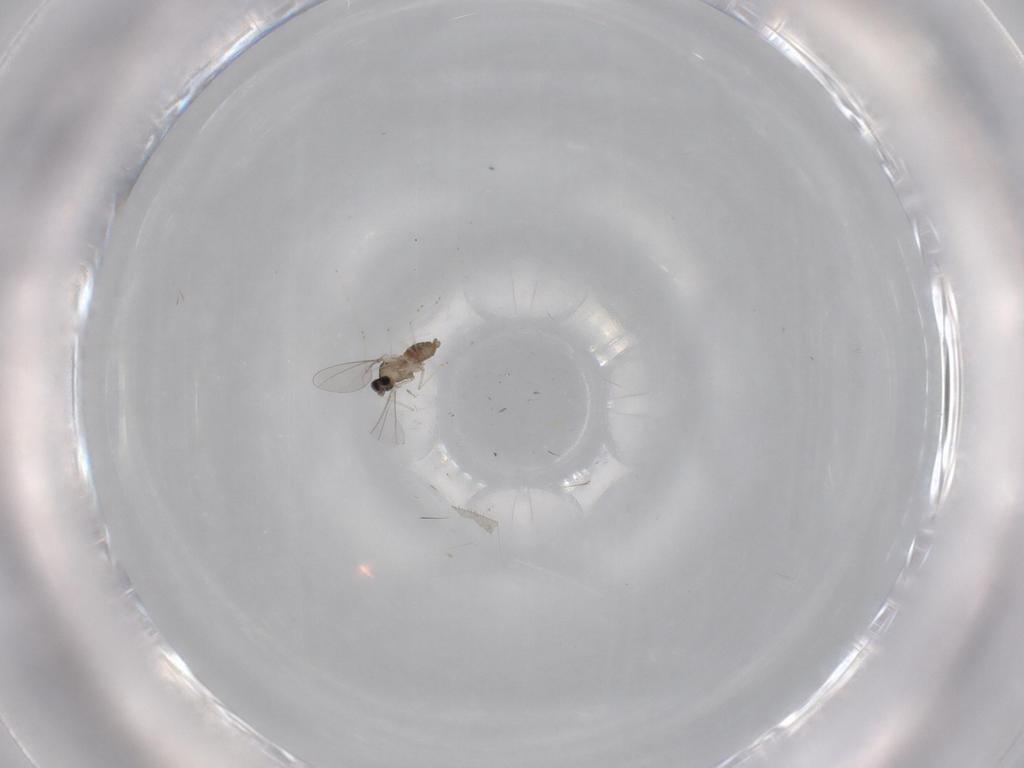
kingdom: Animalia
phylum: Arthropoda
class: Insecta
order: Diptera
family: Cecidomyiidae
